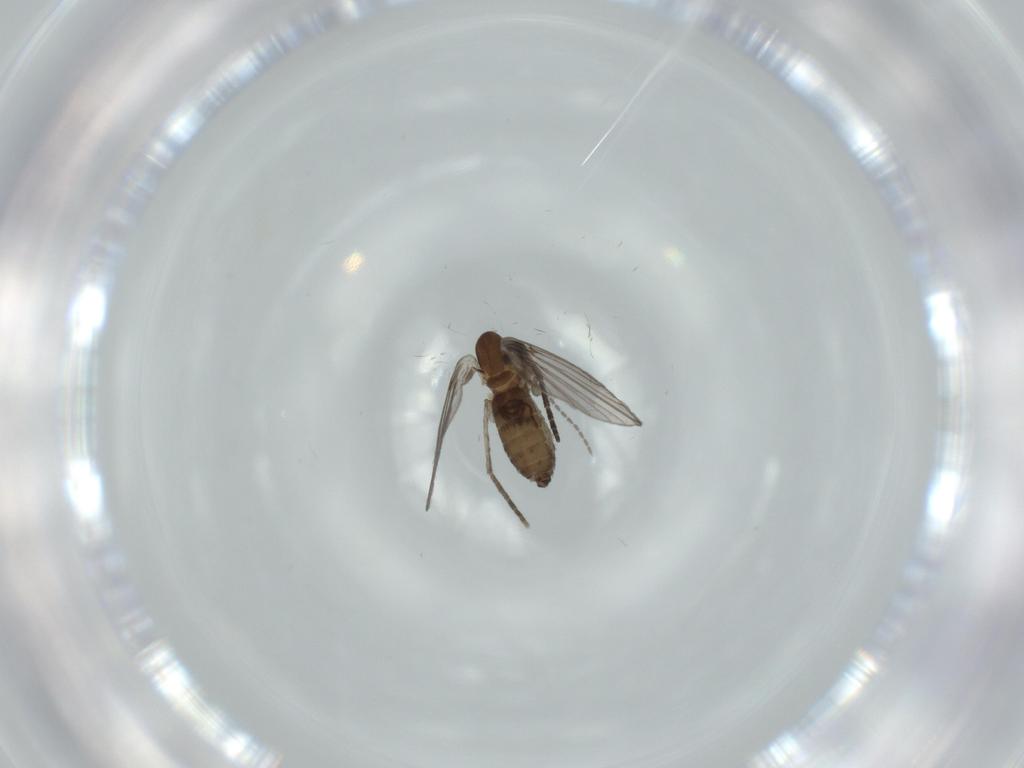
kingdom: Animalia
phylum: Arthropoda
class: Insecta
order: Diptera
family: Psychodidae
